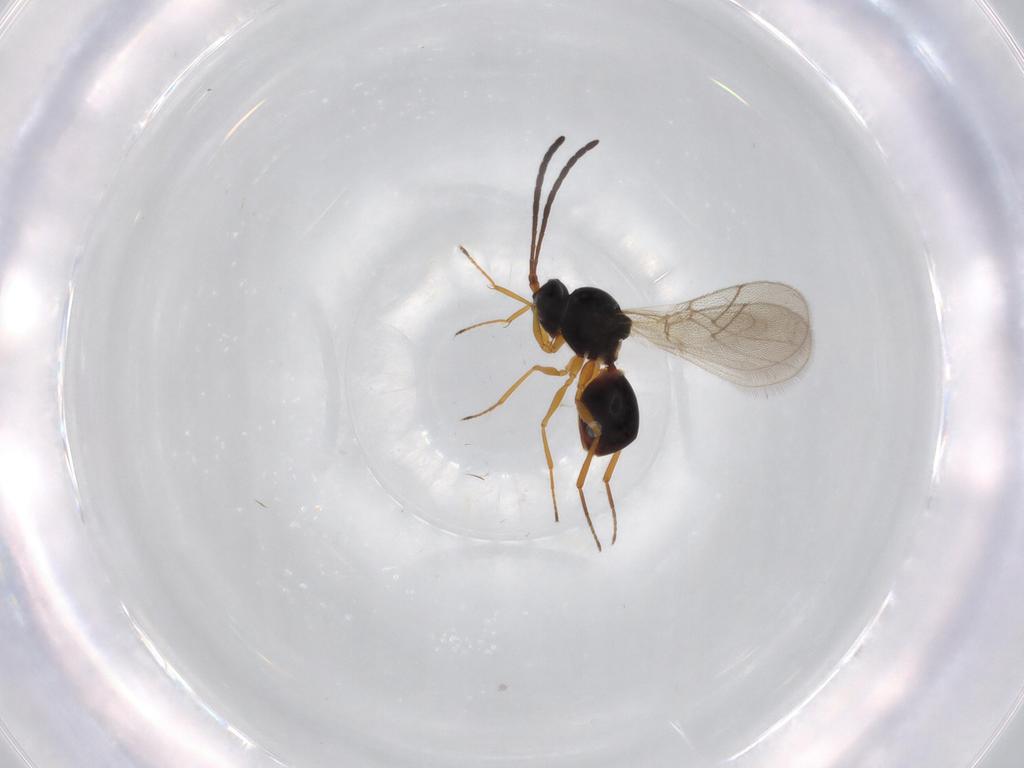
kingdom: Animalia
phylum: Arthropoda
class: Insecta
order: Hymenoptera
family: Figitidae
